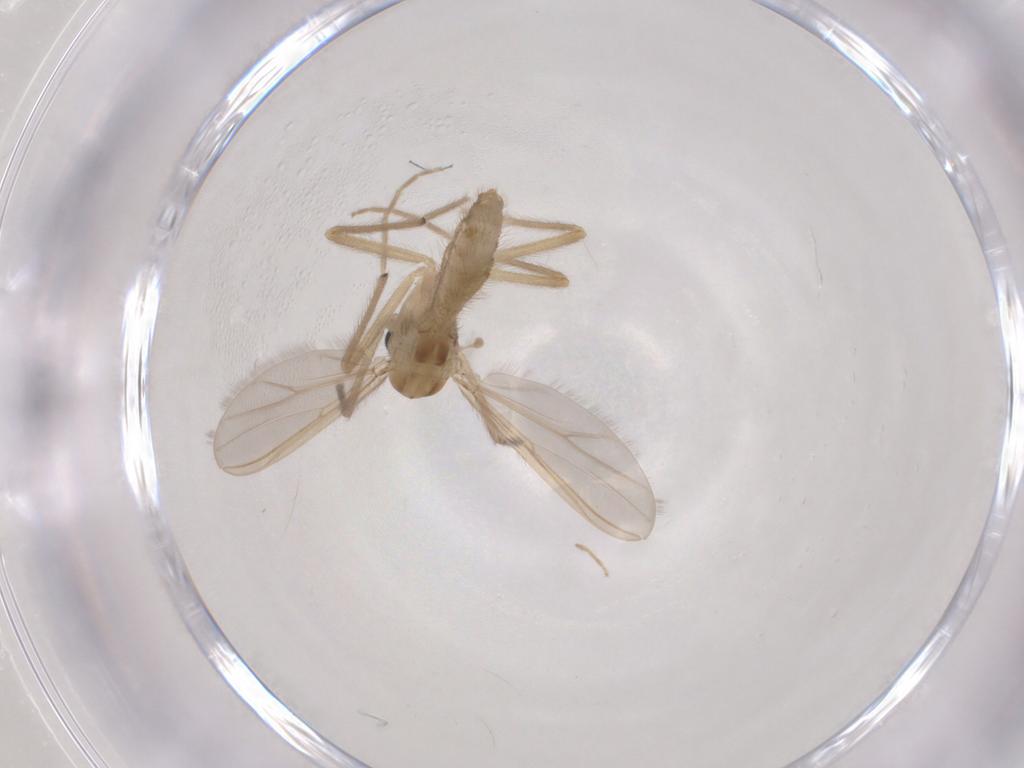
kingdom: Animalia
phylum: Arthropoda
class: Insecta
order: Diptera
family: Chironomidae
